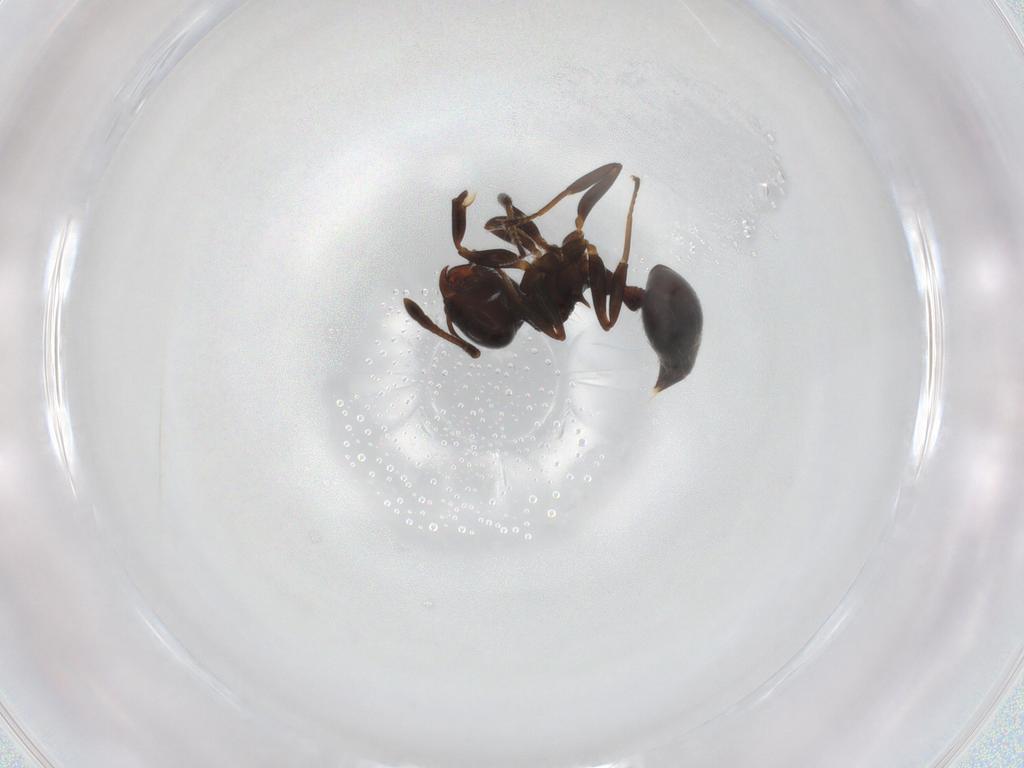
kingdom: Animalia
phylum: Arthropoda
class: Insecta
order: Hymenoptera
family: Formicidae
